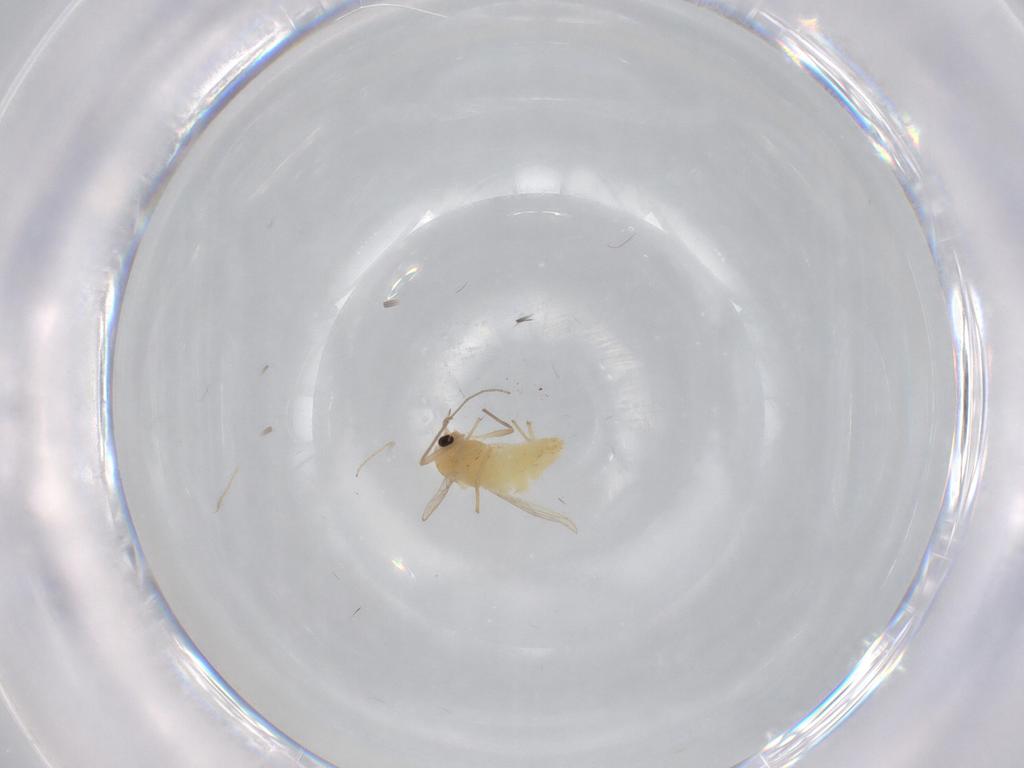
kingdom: Animalia
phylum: Arthropoda
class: Insecta
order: Diptera
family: Chironomidae
